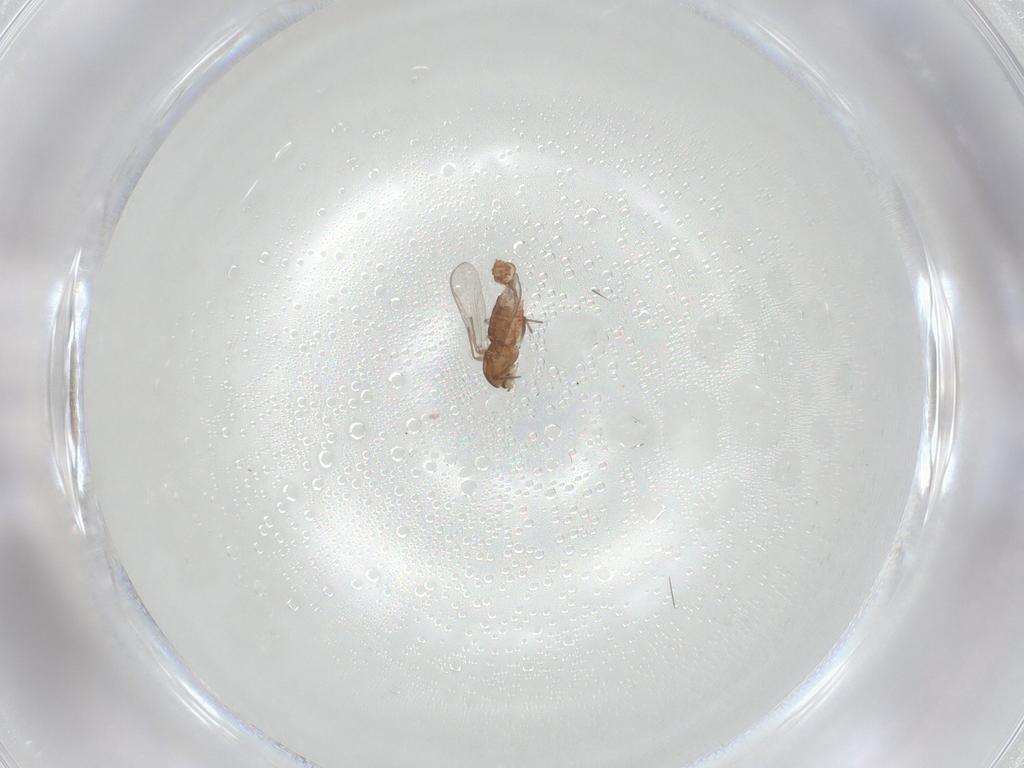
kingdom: Animalia
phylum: Arthropoda
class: Insecta
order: Diptera
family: Chironomidae
